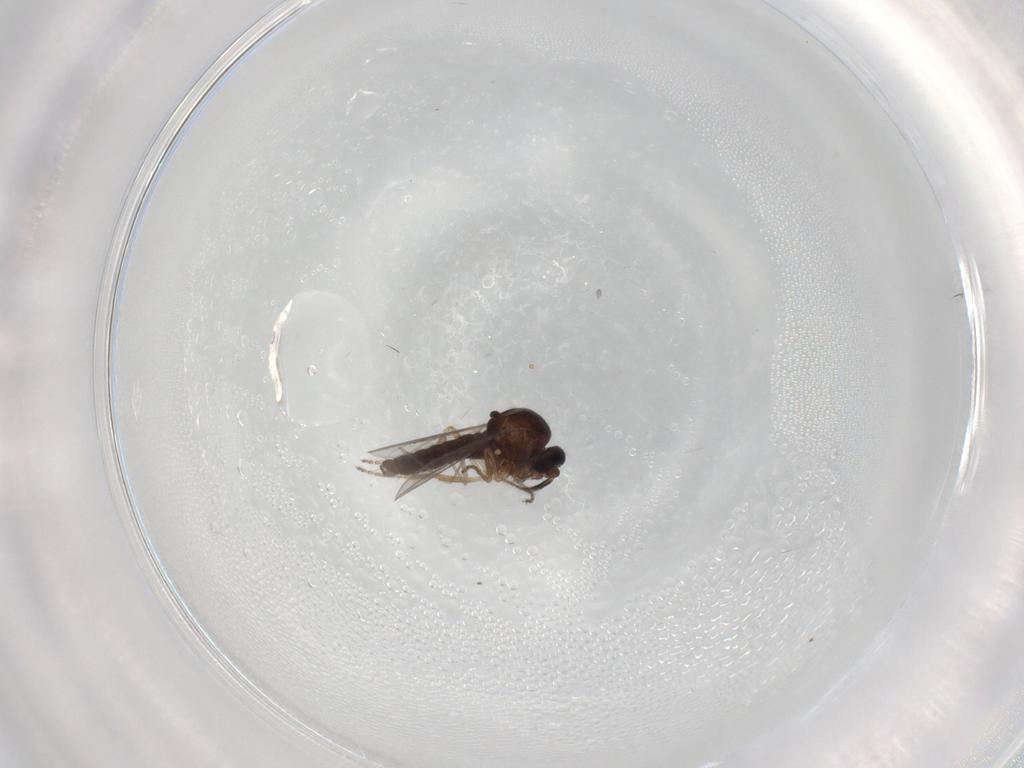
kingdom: Animalia
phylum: Arthropoda
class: Insecta
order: Diptera
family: Ceratopogonidae
